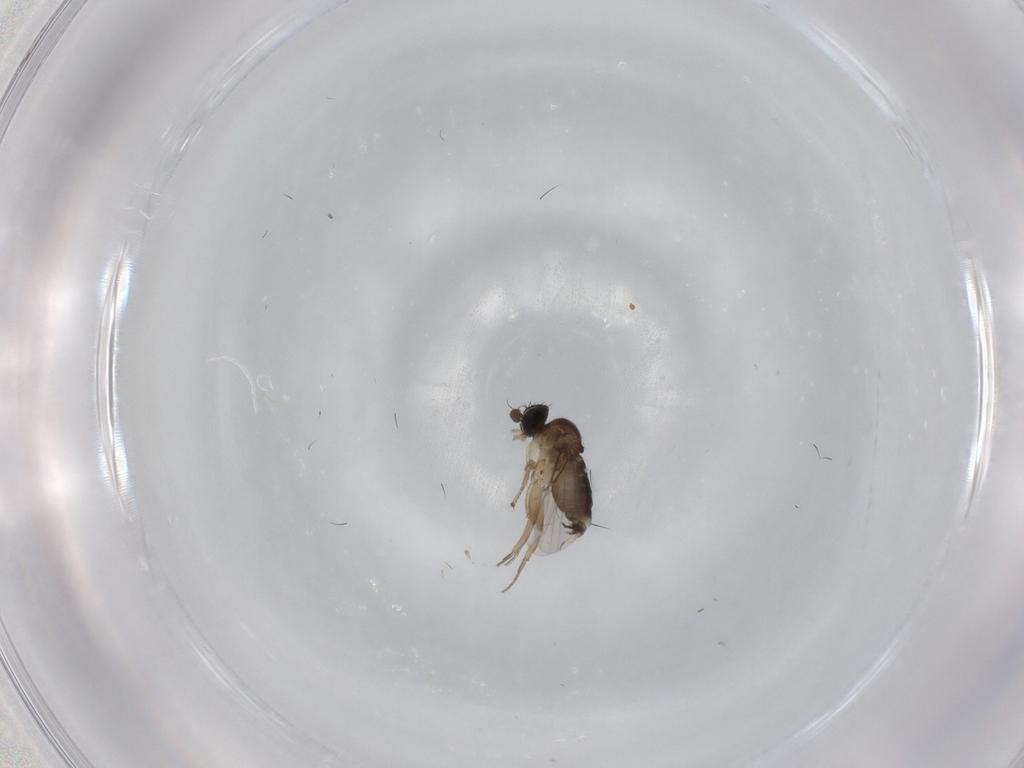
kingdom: Animalia
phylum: Arthropoda
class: Insecta
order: Diptera
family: Phoridae
